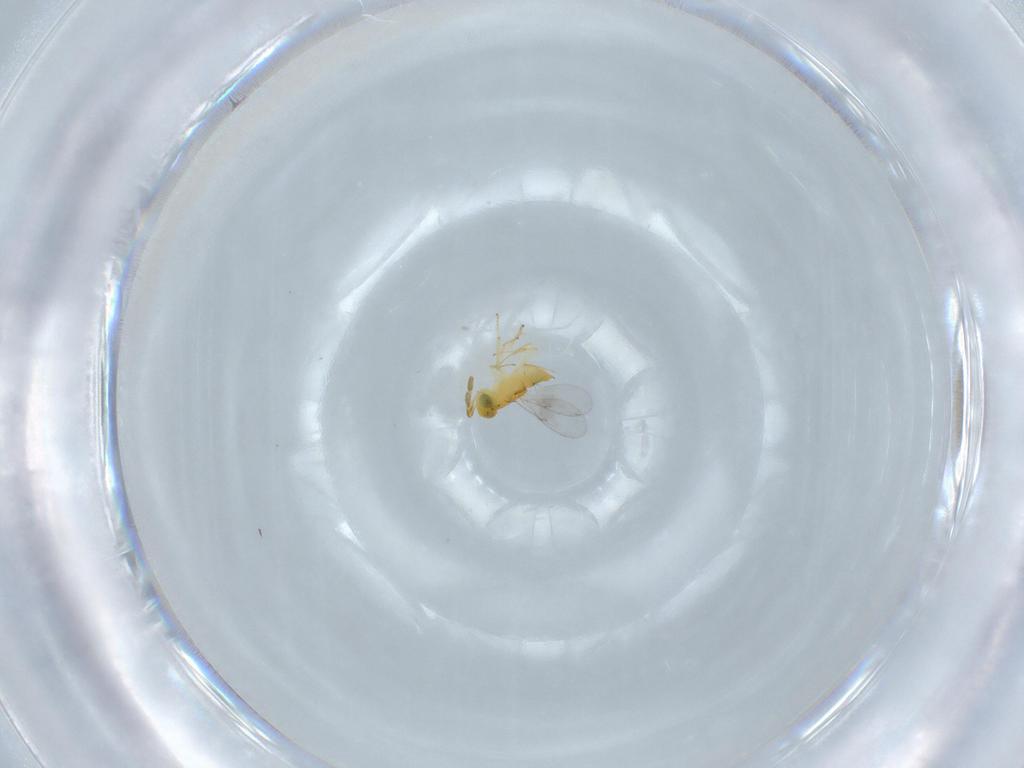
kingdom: Animalia
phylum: Arthropoda
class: Insecta
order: Hymenoptera
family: Encyrtidae
